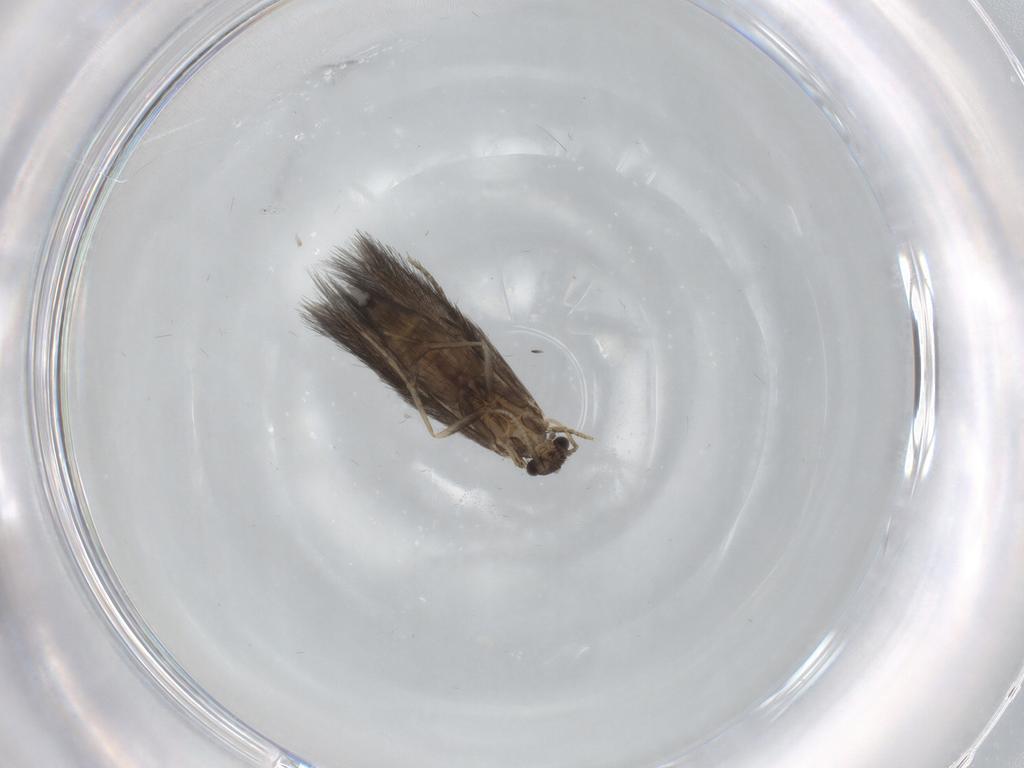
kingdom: Animalia
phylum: Arthropoda
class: Insecta
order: Trichoptera
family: Hydroptilidae
